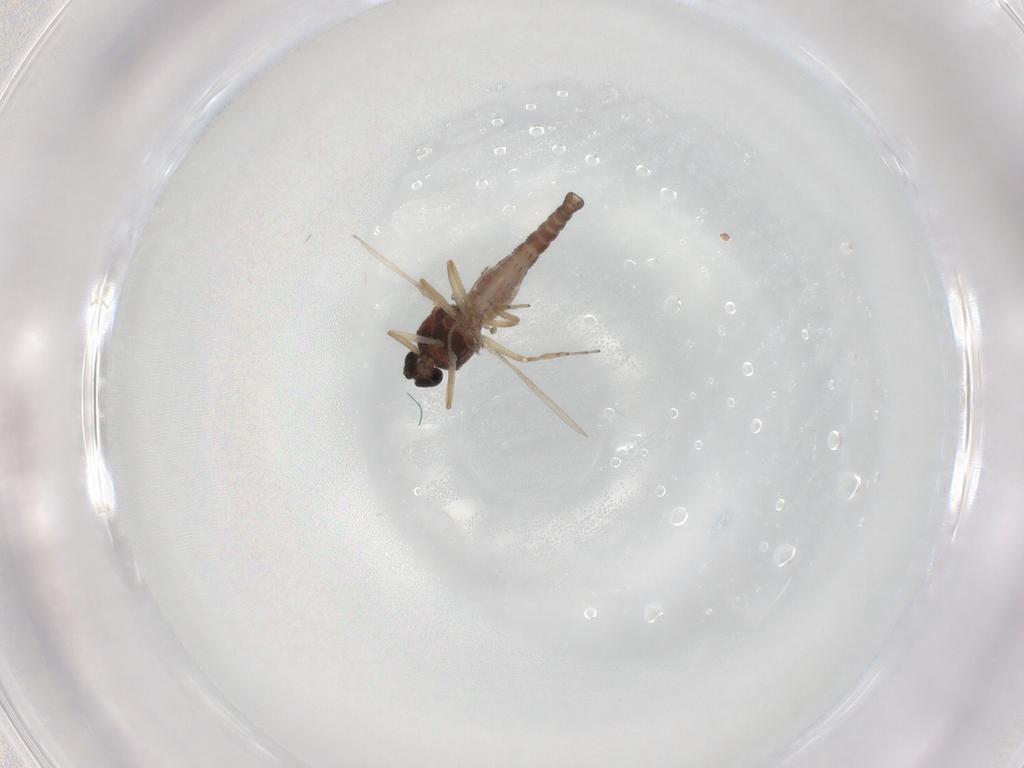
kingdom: Animalia
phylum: Arthropoda
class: Insecta
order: Diptera
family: Ceratopogonidae
